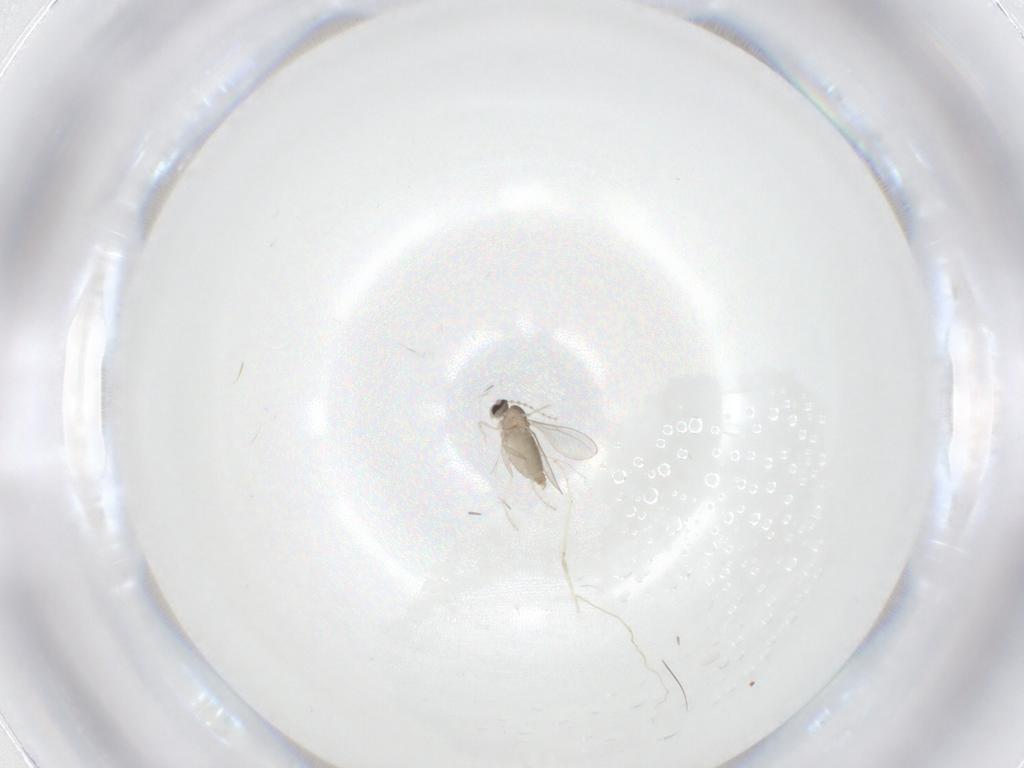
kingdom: Animalia
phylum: Arthropoda
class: Insecta
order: Diptera
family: Cecidomyiidae
